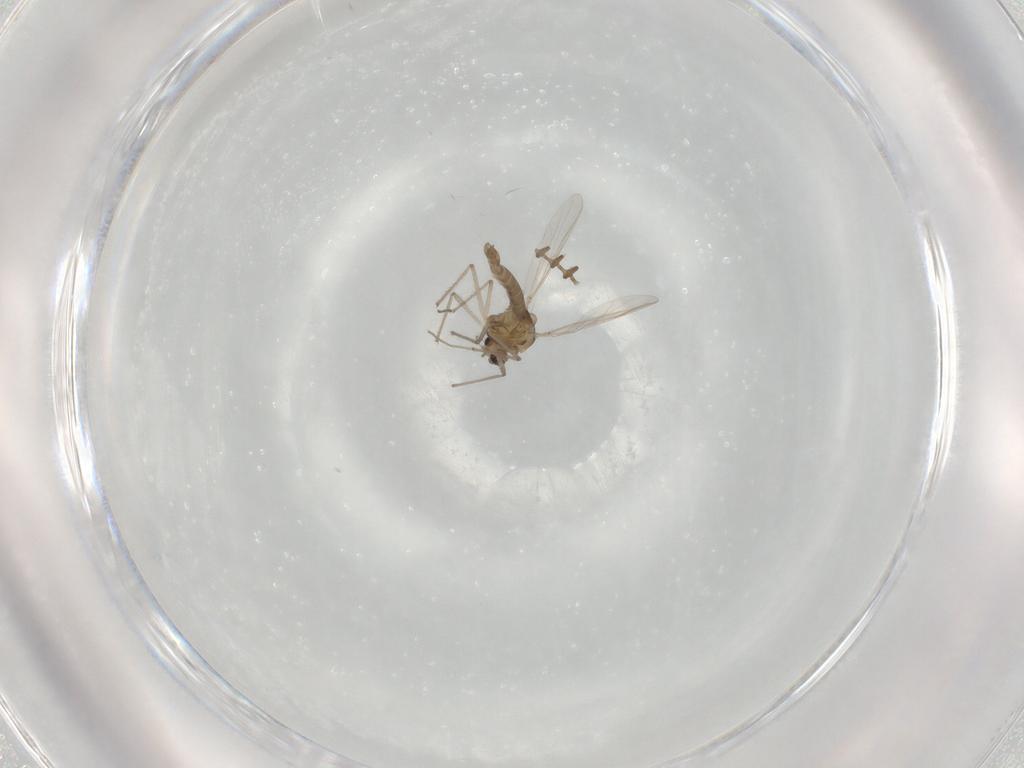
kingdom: Animalia
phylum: Arthropoda
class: Insecta
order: Diptera
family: Chironomidae
